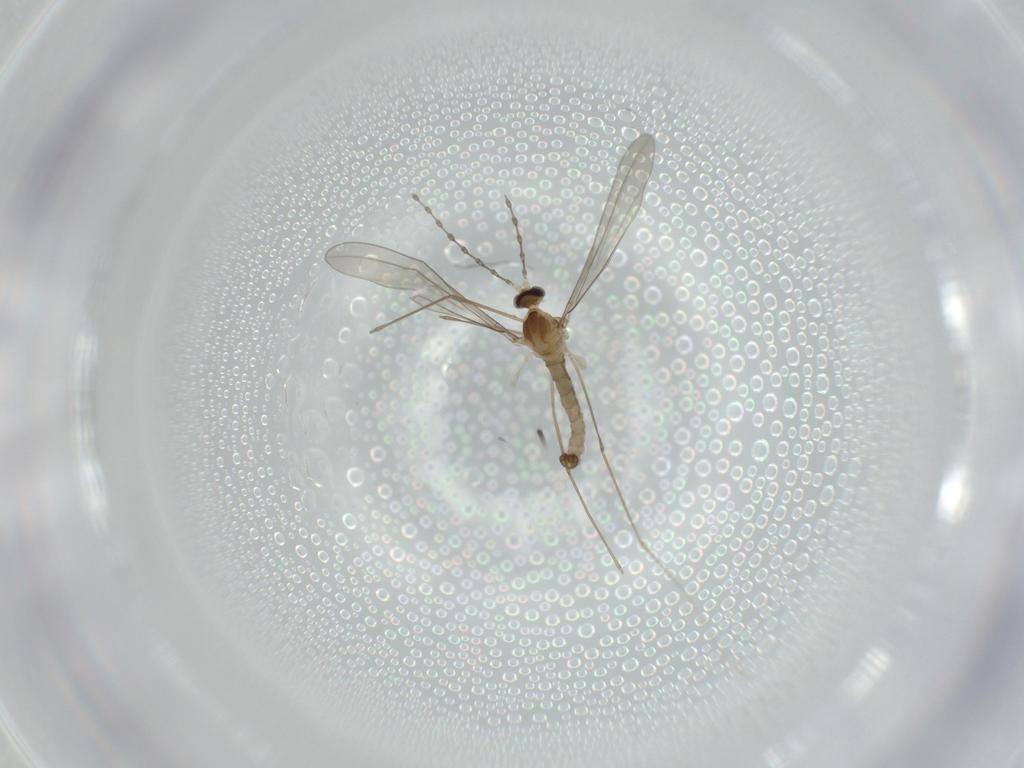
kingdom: Animalia
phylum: Arthropoda
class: Insecta
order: Diptera
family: Cecidomyiidae
